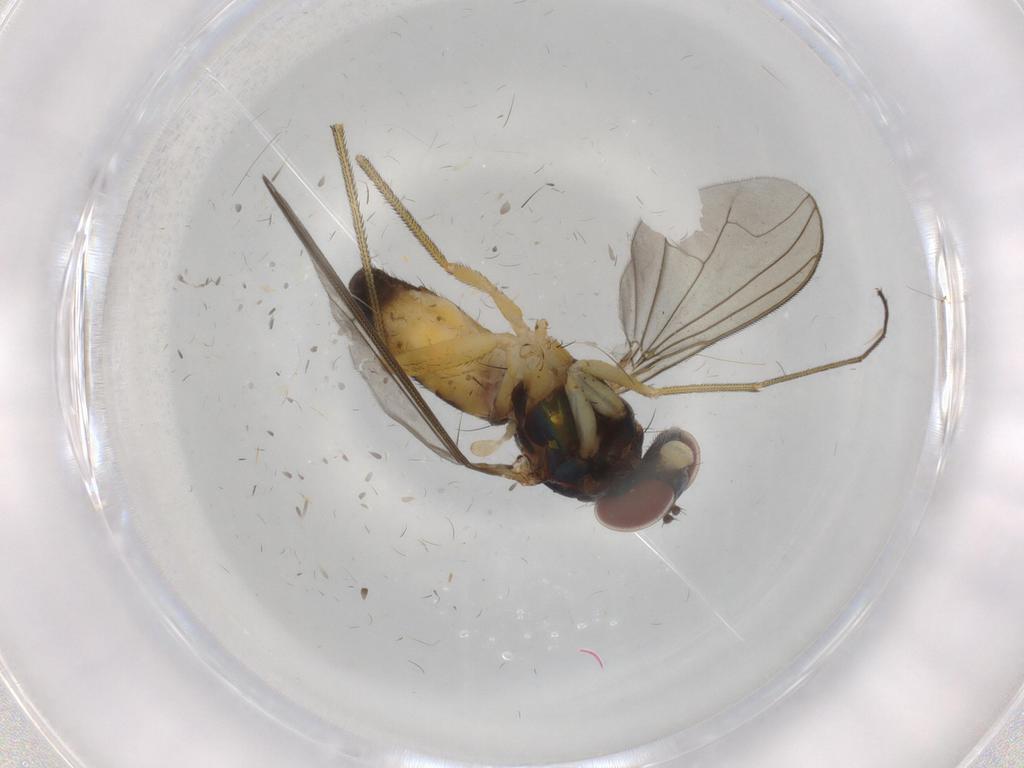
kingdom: Animalia
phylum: Arthropoda
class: Insecta
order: Diptera
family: Dolichopodidae
